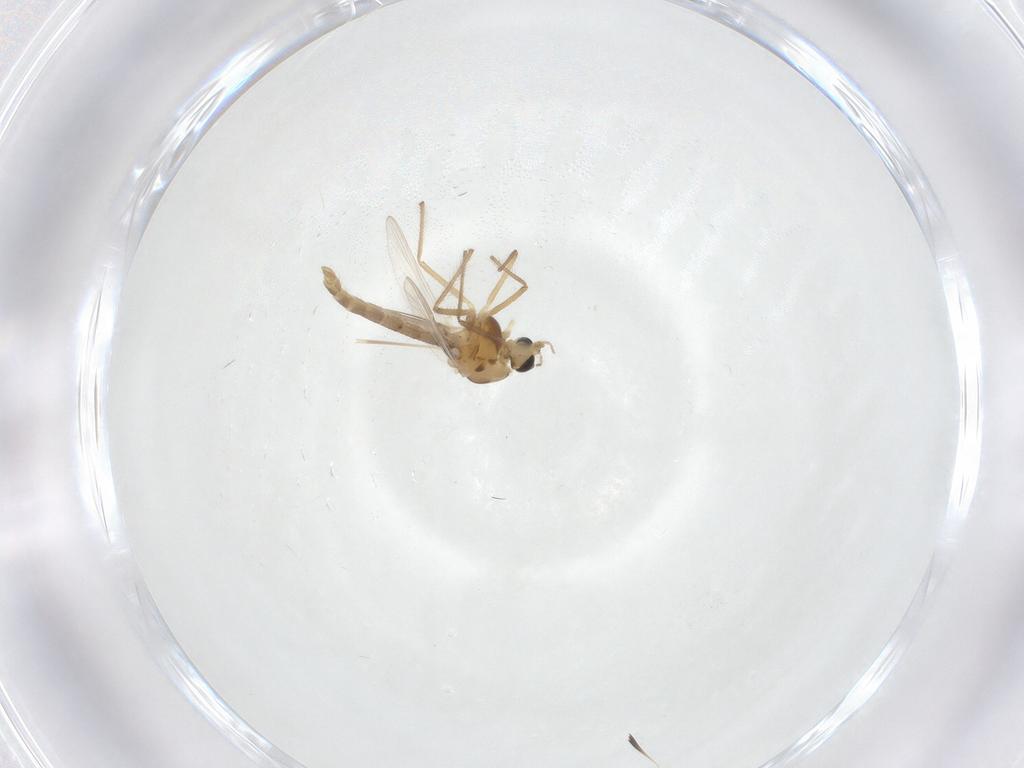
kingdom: Animalia
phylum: Arthropoda
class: Insecta
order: Diptera
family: Chironomidae
